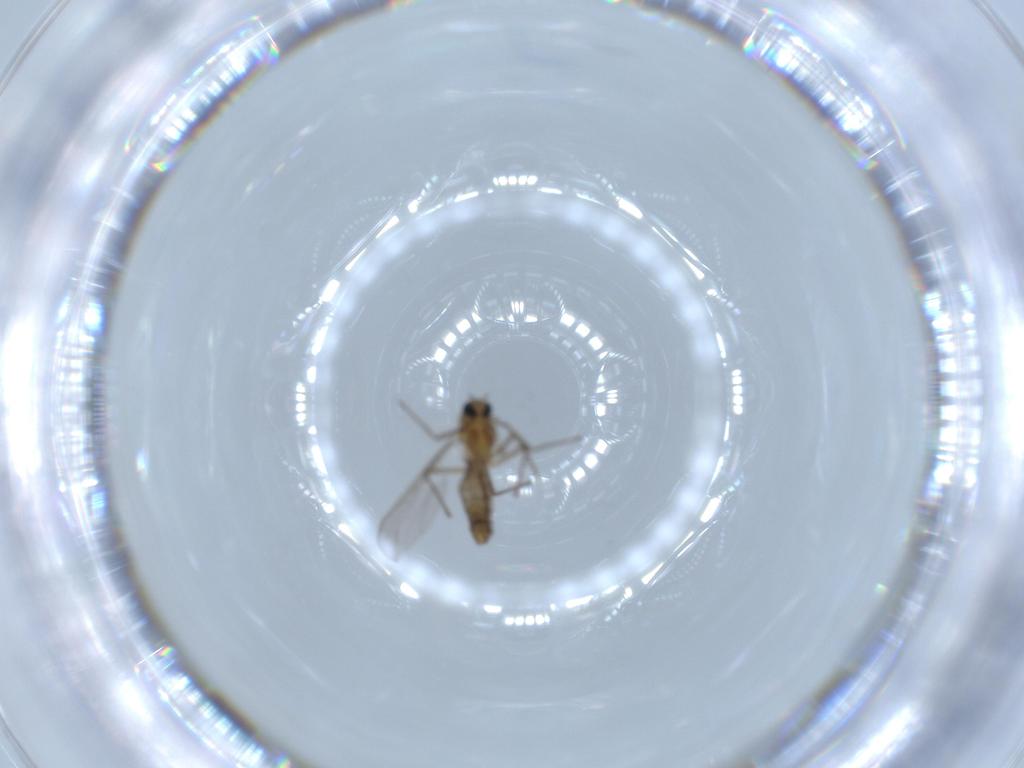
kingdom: Animalia
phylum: Arthropoda
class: Insecta
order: Diptera
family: Chironomidae
